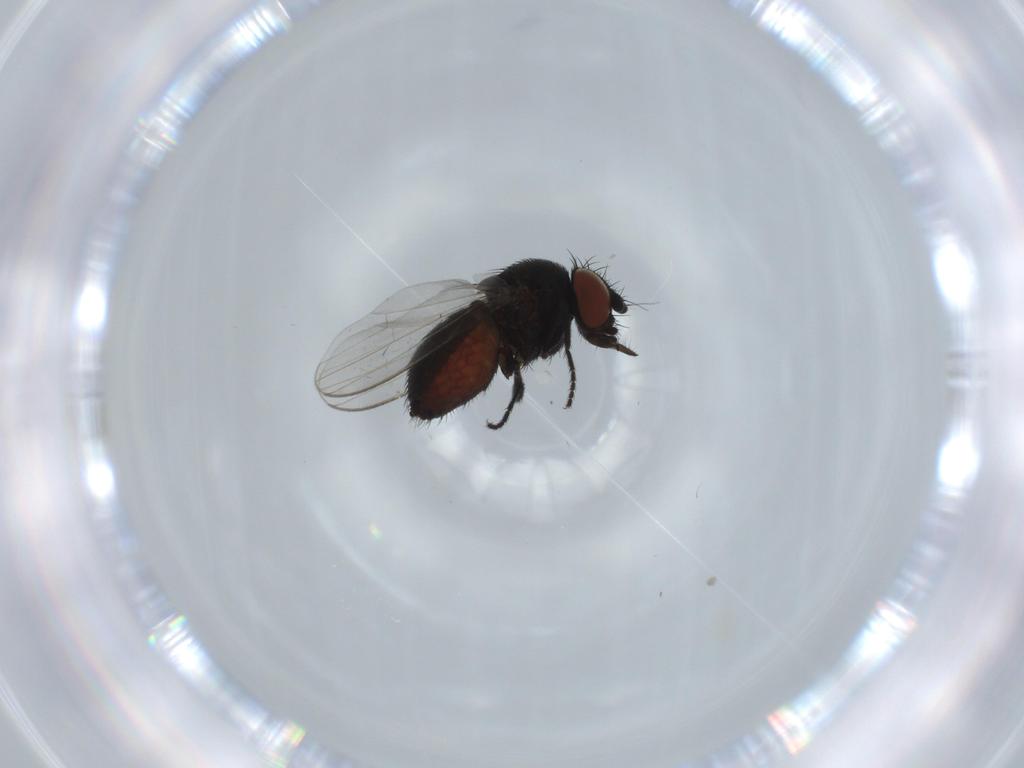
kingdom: Animalia
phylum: Arthropoda
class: Insecta
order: Diptera
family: Milichiidae
